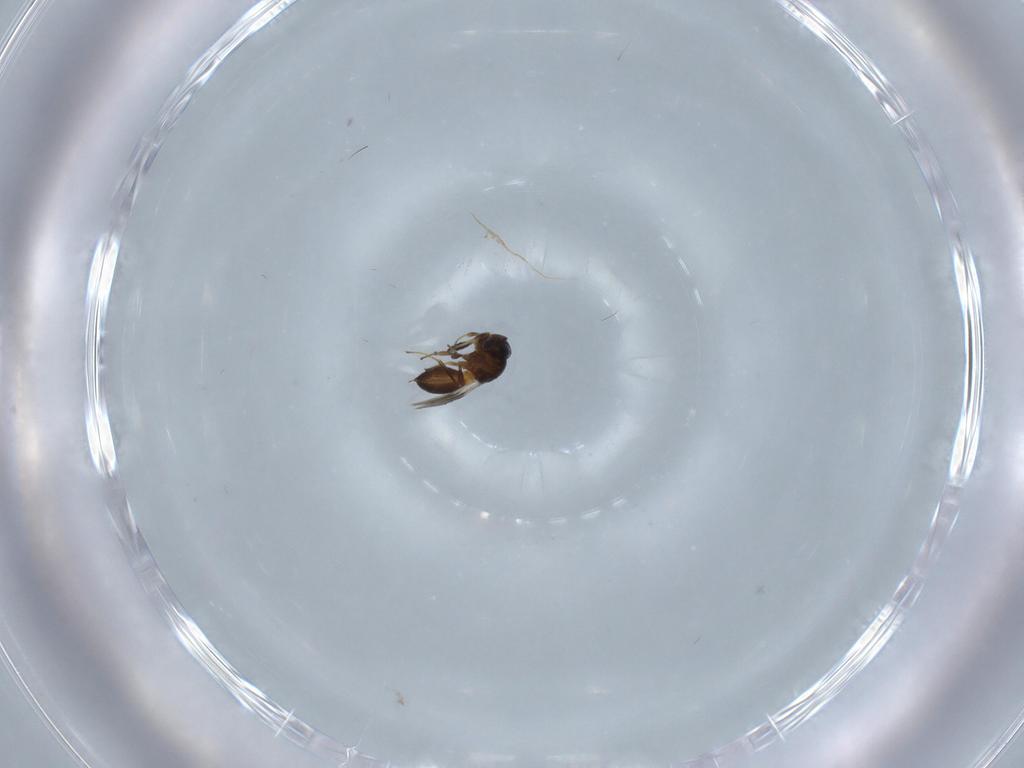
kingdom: Animalia
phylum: Arthropoda
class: Insecta
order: Hymenoptera
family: Scelionidae
